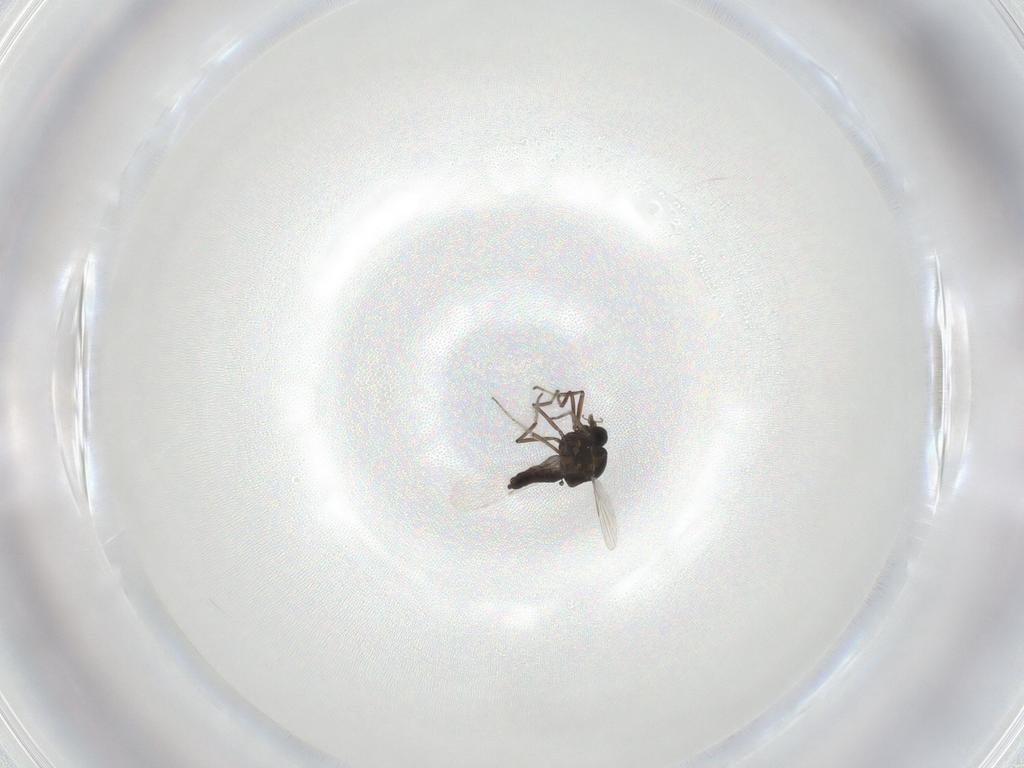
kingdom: Animalia
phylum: Arthropoda
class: Insecta
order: Diptera
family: Ceratopogonidae
